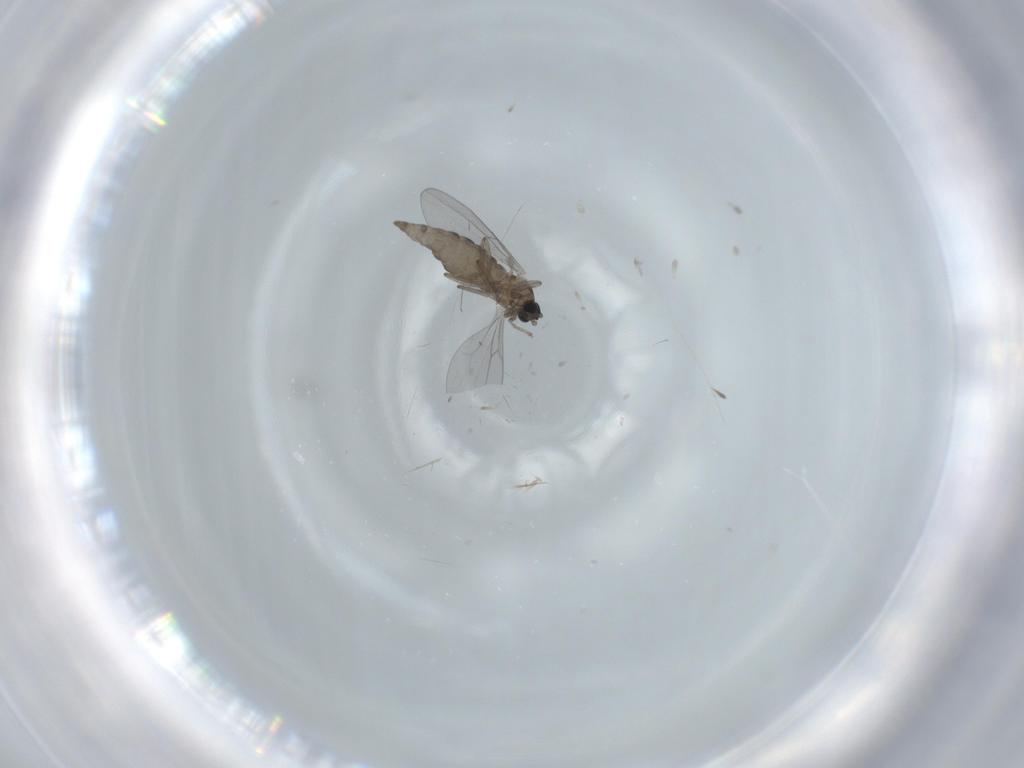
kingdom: Animalia
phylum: Arthropoda
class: Insecta
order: Diptera
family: Cecidomyiidae
